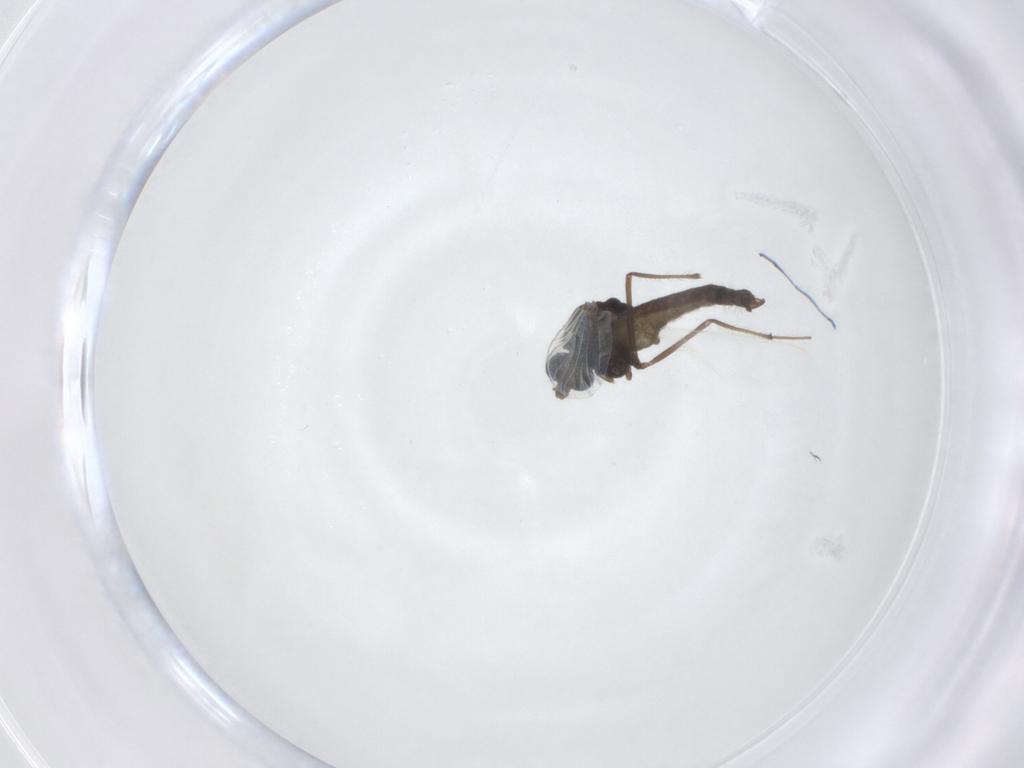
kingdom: Animalia
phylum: Arthropoda
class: Insecta
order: Diptera
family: Chironomidae
